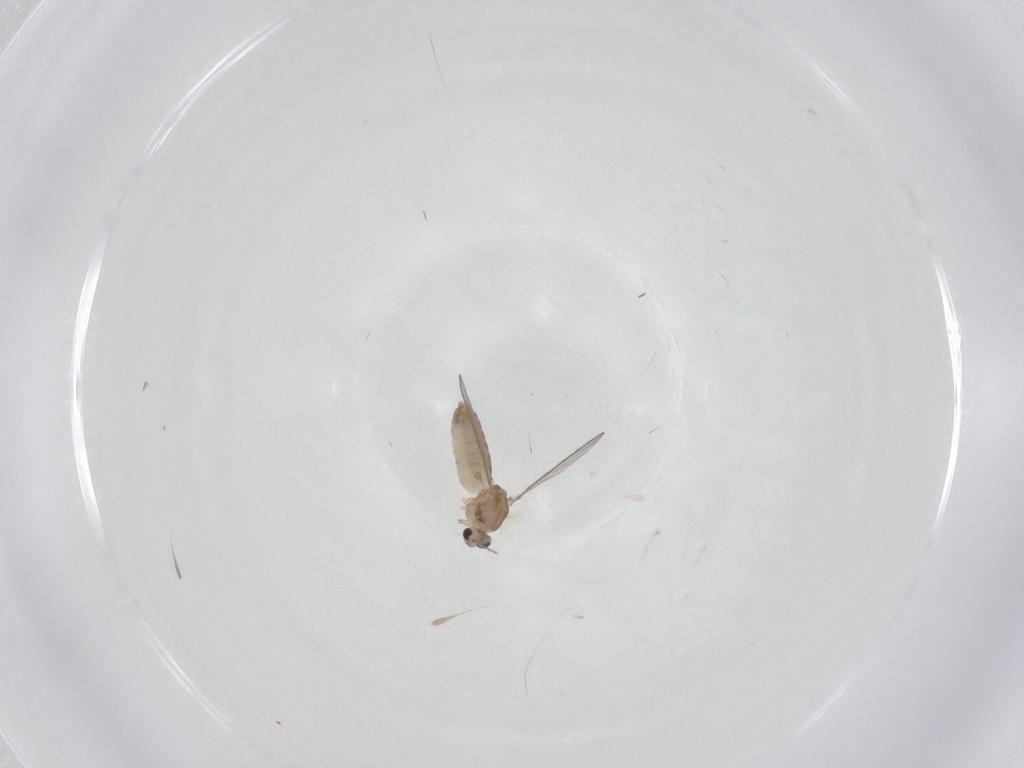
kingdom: Animalia
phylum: Arthropoda
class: Insecta
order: Diptera
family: Chironomidae
